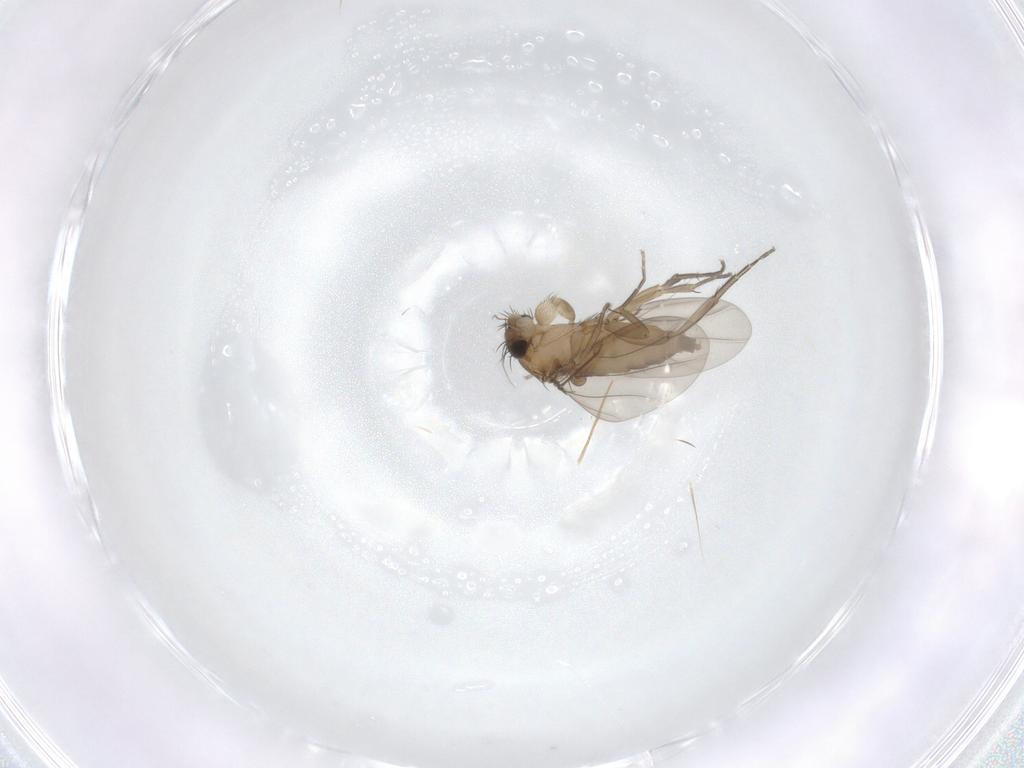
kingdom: Animalia
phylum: Arthropoda
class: Insecta
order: Diptera
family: Phoridae
